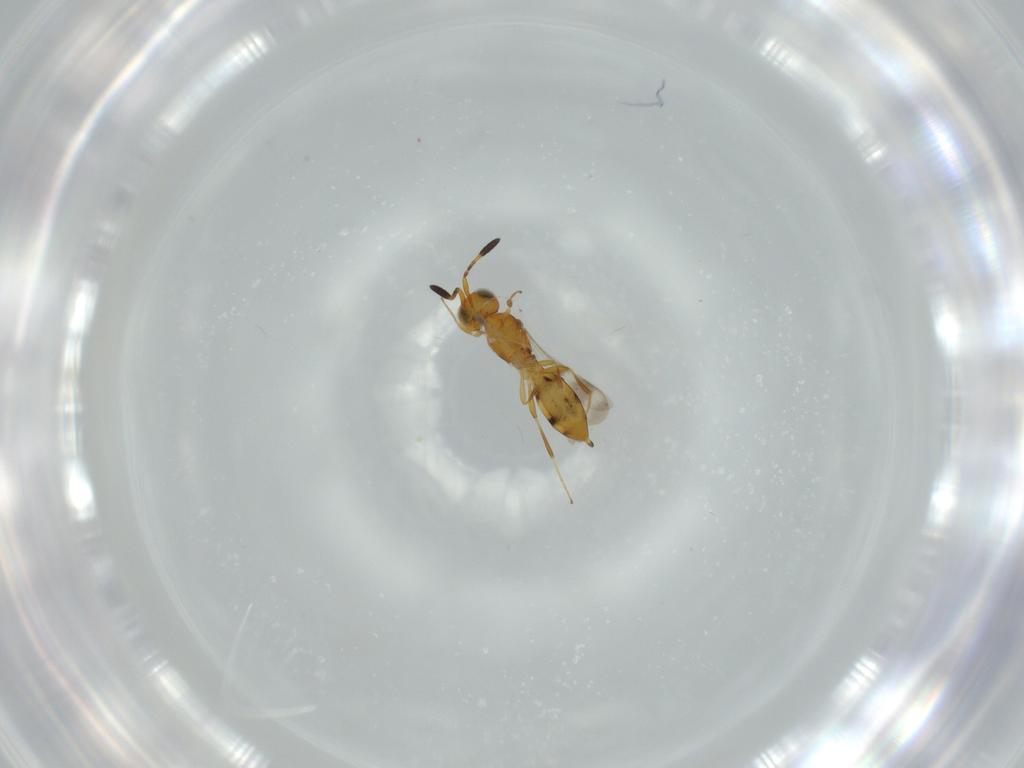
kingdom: Animalia
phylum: Arthropoda
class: Insecta
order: Hymenoptera
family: Scelionidae
